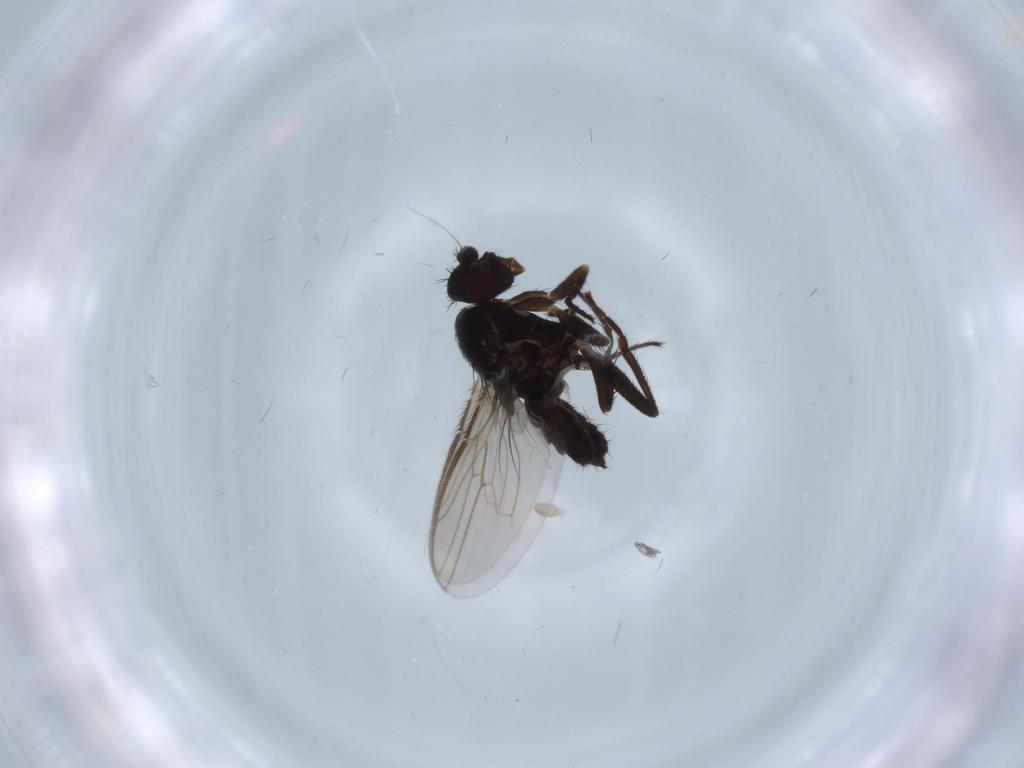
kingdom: Animalia
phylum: Arthropoda
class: Insecta
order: Diptera
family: Sphaeroceridae
